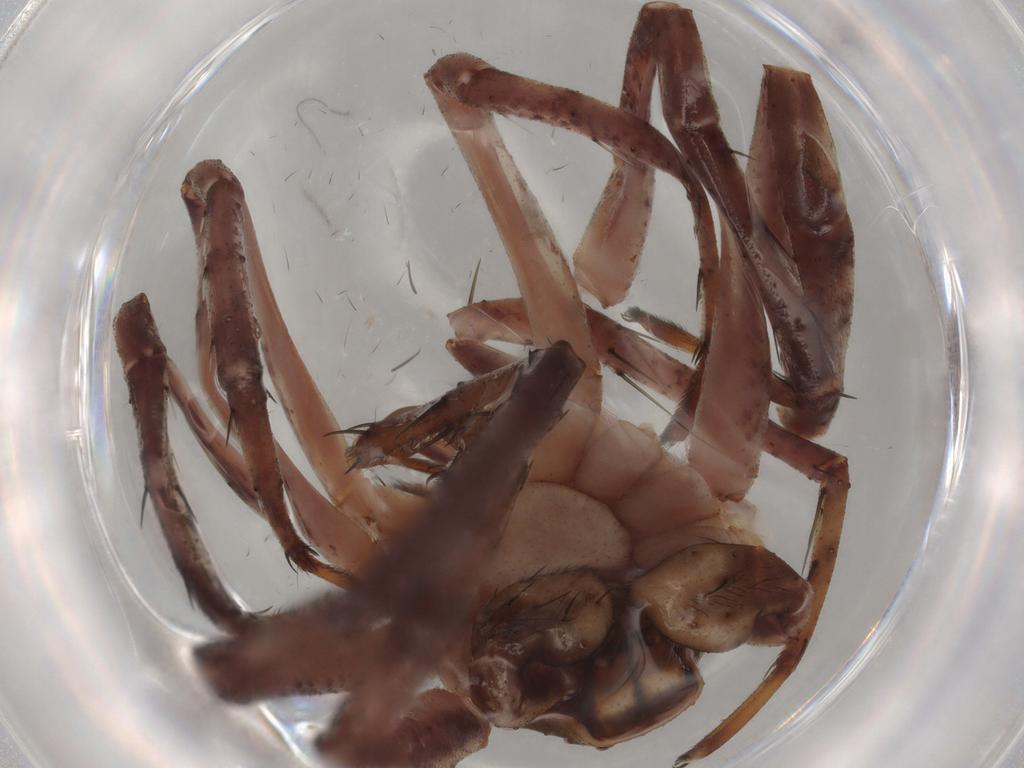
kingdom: Animalia
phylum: Arthropoda
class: Arachnida
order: Araneae
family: Philodromidae
